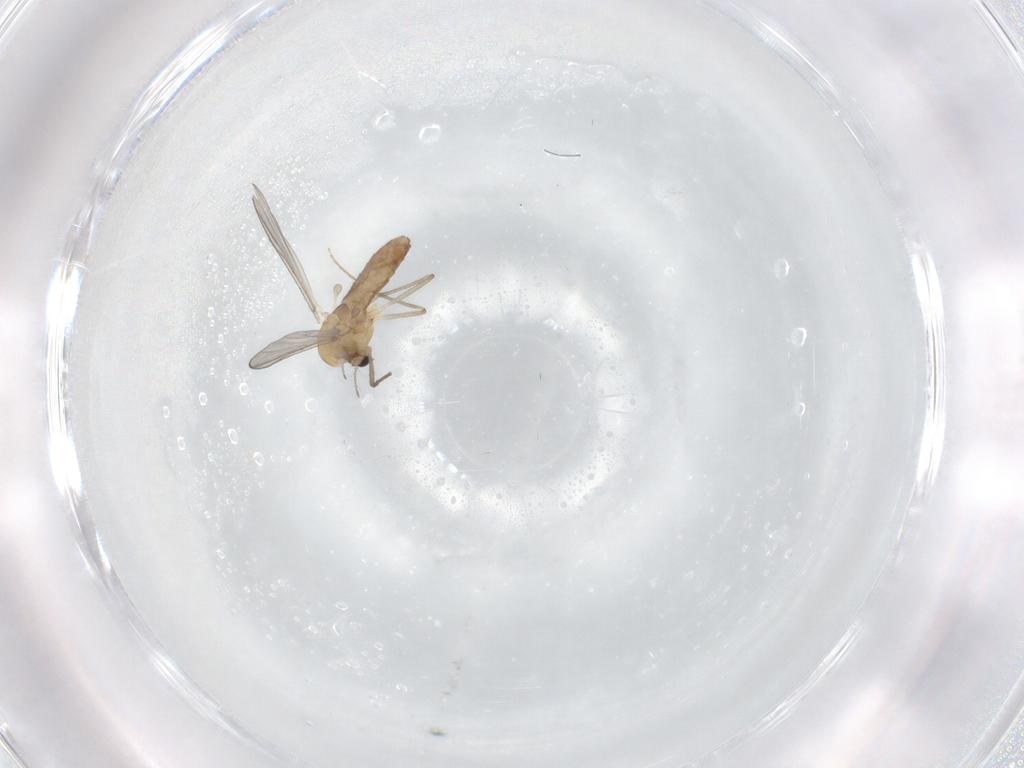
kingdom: Animalia
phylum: Arthropoda
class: Insecta
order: Diptera
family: Chironomidae
